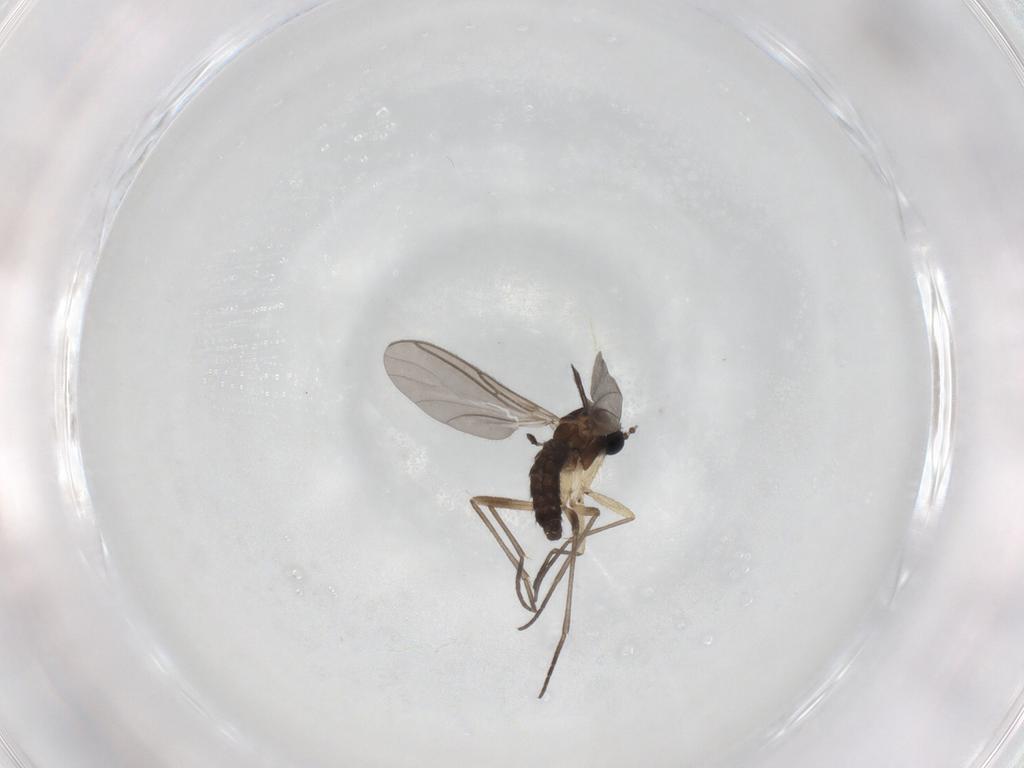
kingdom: Animalia
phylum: Arthropoda
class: Insecta
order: Diptera
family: Sciaridae
